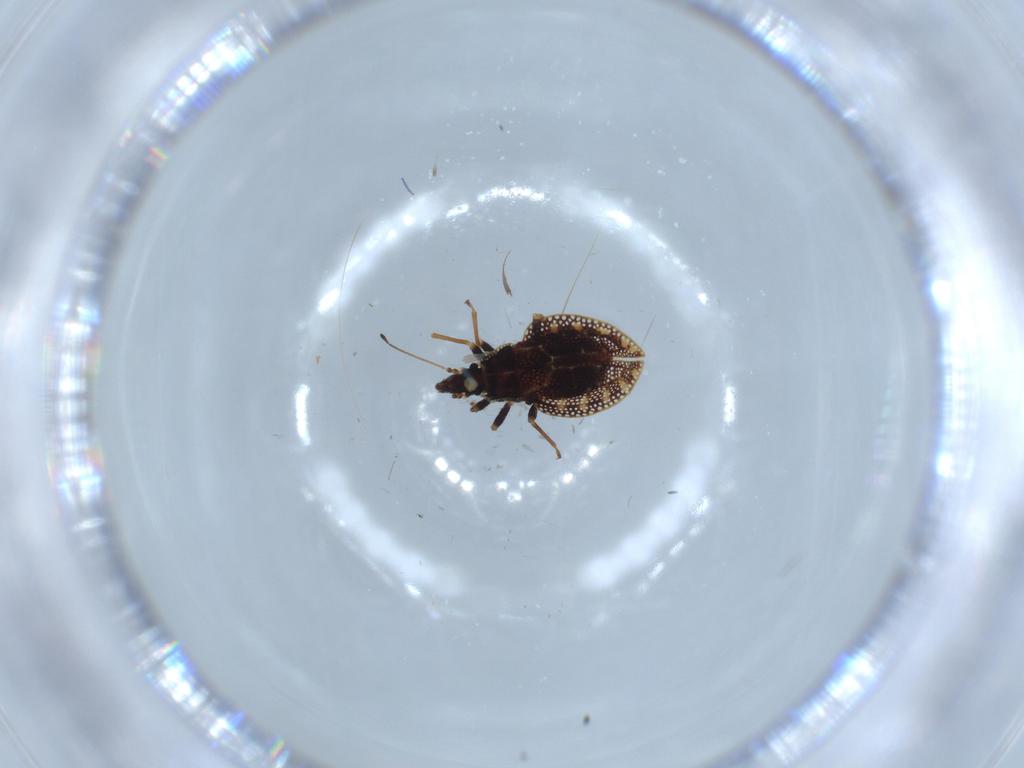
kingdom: Animalia
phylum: Arthropoda
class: Insecta
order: Hemiptera
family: Tingidae
